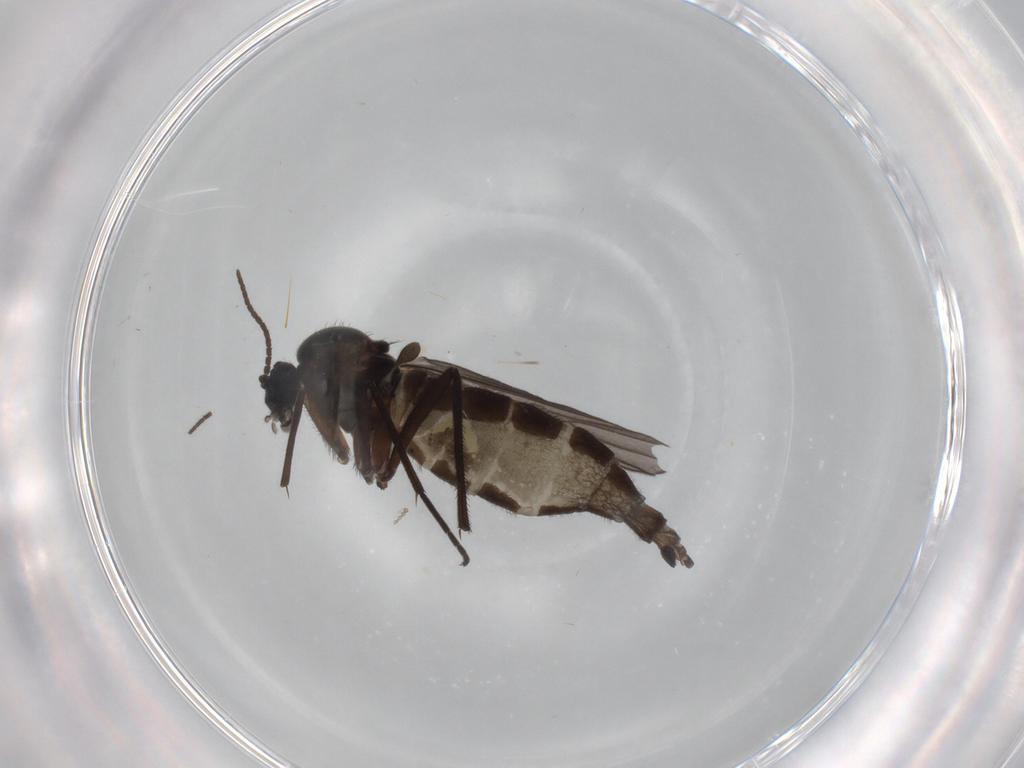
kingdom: Animalia
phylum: Arthropoda
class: Insecta
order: Diptera
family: Sciaridae
